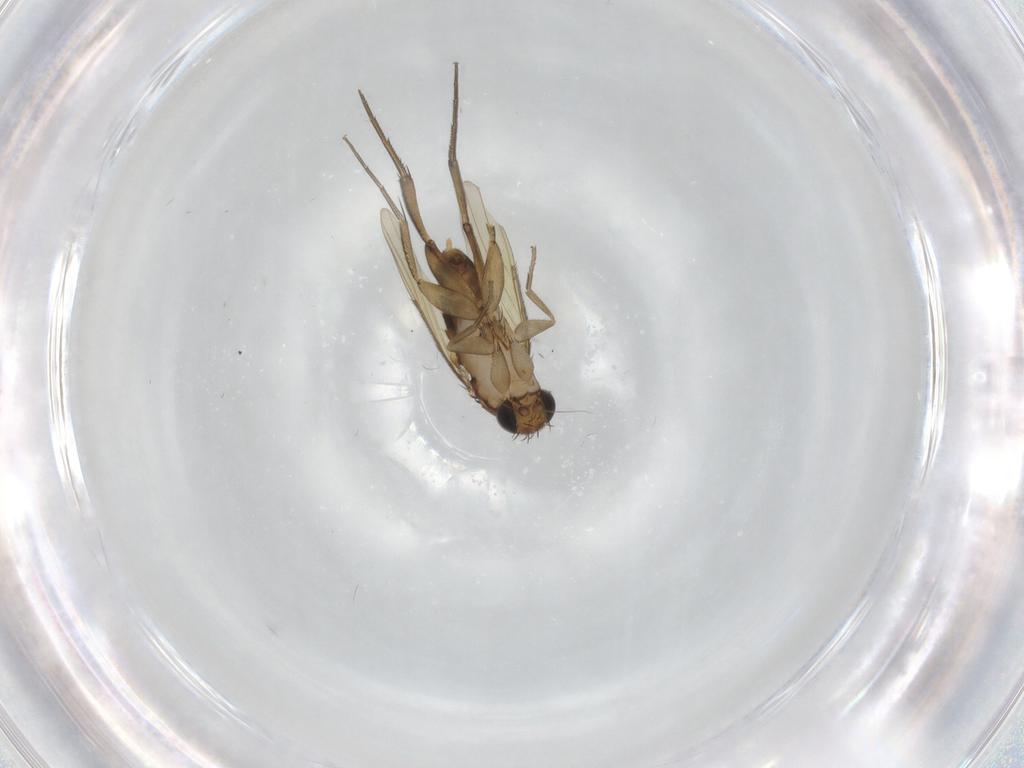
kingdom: Animalia
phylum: Arthropoda
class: Insecta
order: Diptera
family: Phoridae
